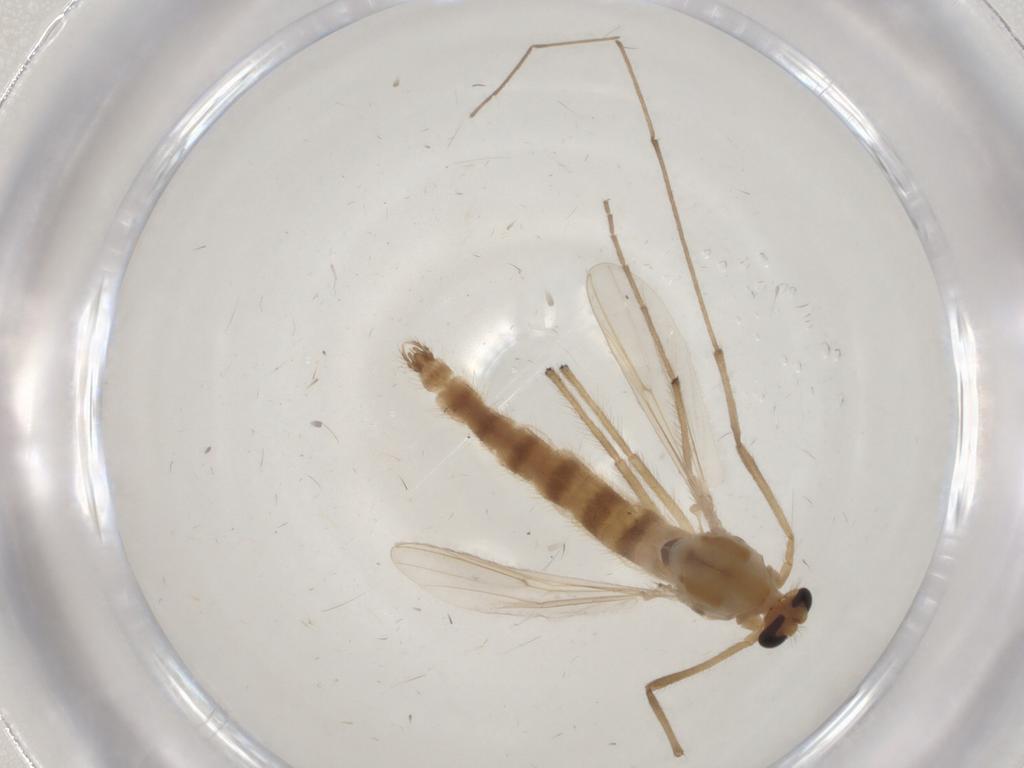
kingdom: Animalia
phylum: Arthropoda
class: Insecta
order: Diptera
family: Chironomidae
